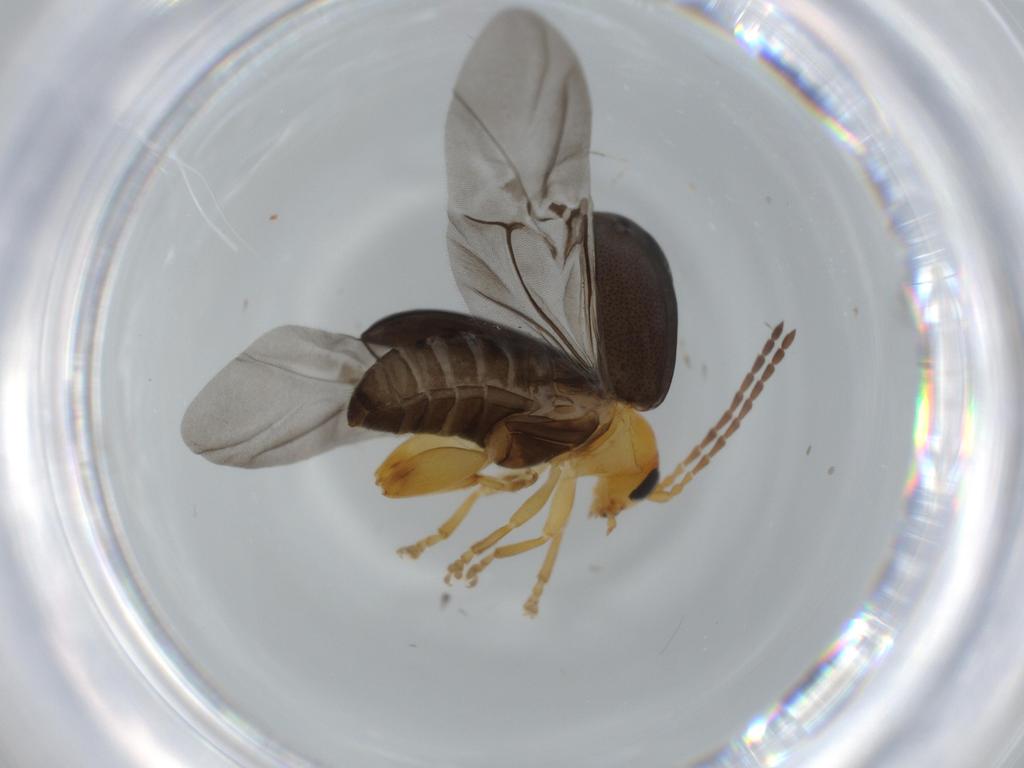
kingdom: Animalia
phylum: Arthropoda
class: Insecta
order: Coleoptera
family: Chrysomelidae
